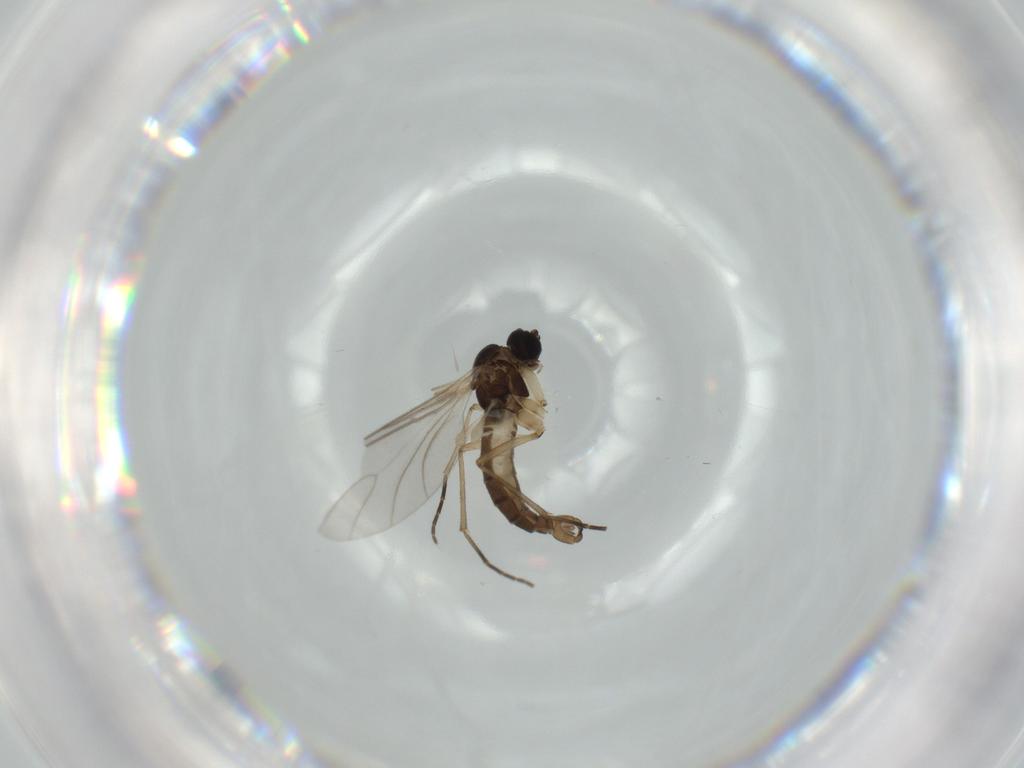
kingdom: Animalia
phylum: Arthropoda
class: Insecta
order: Diptera
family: Sciaridae
